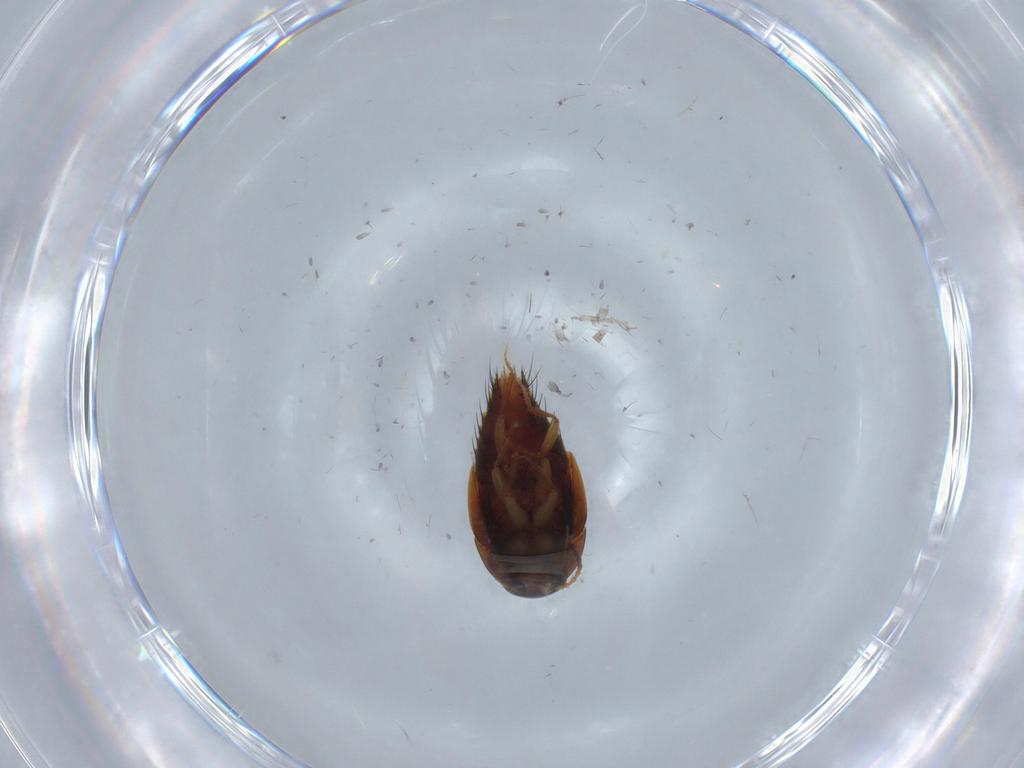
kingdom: Animalia
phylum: Arthropoda
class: Insecta
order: Coleoptera
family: Staphylinidae
